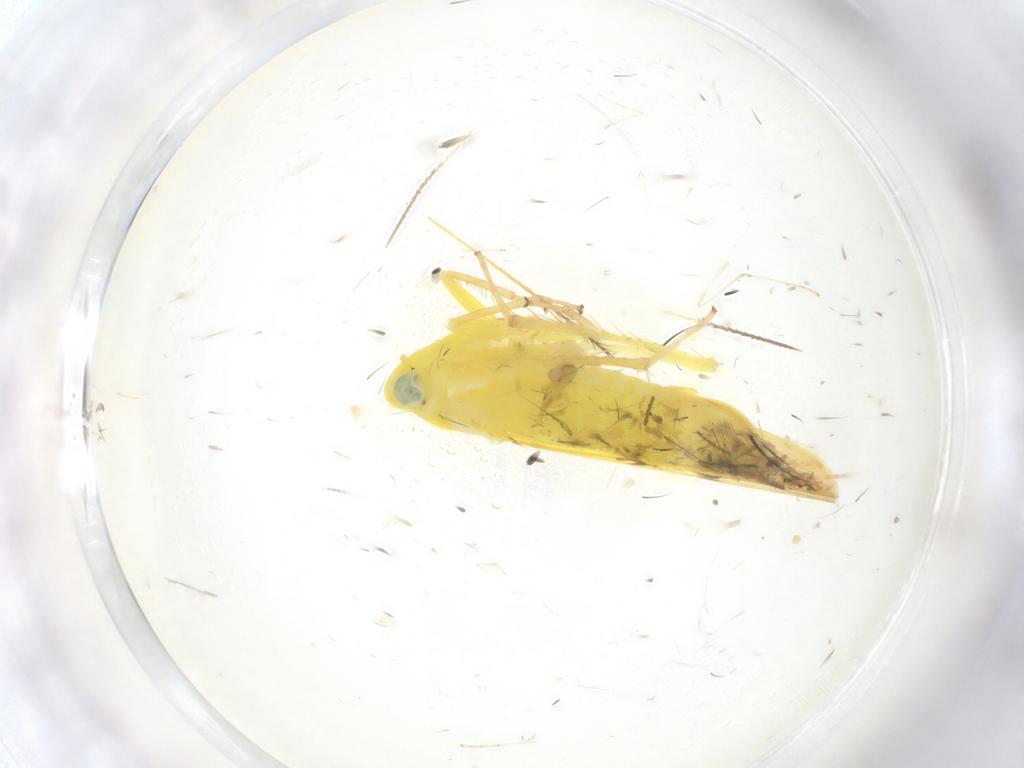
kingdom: Animalia
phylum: Arthropoda
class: Insecta
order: Hemiptera
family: Cicadellidae
